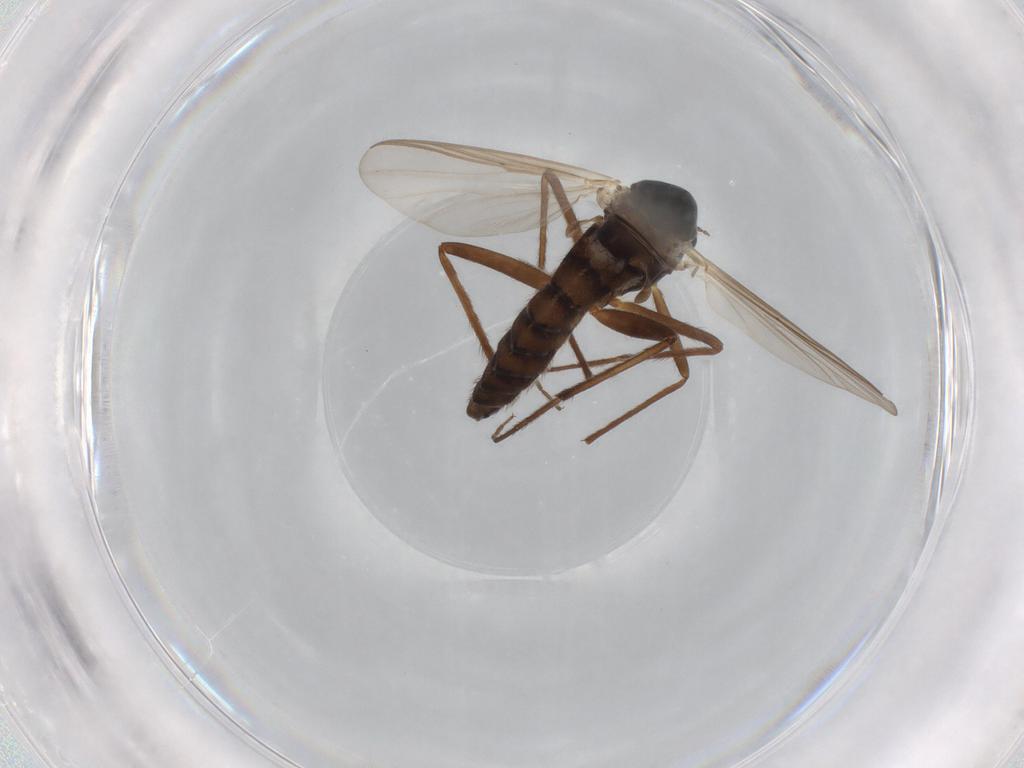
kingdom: Animalia
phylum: Arthropoda
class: Insecta
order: Diptera
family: Chironomidae
